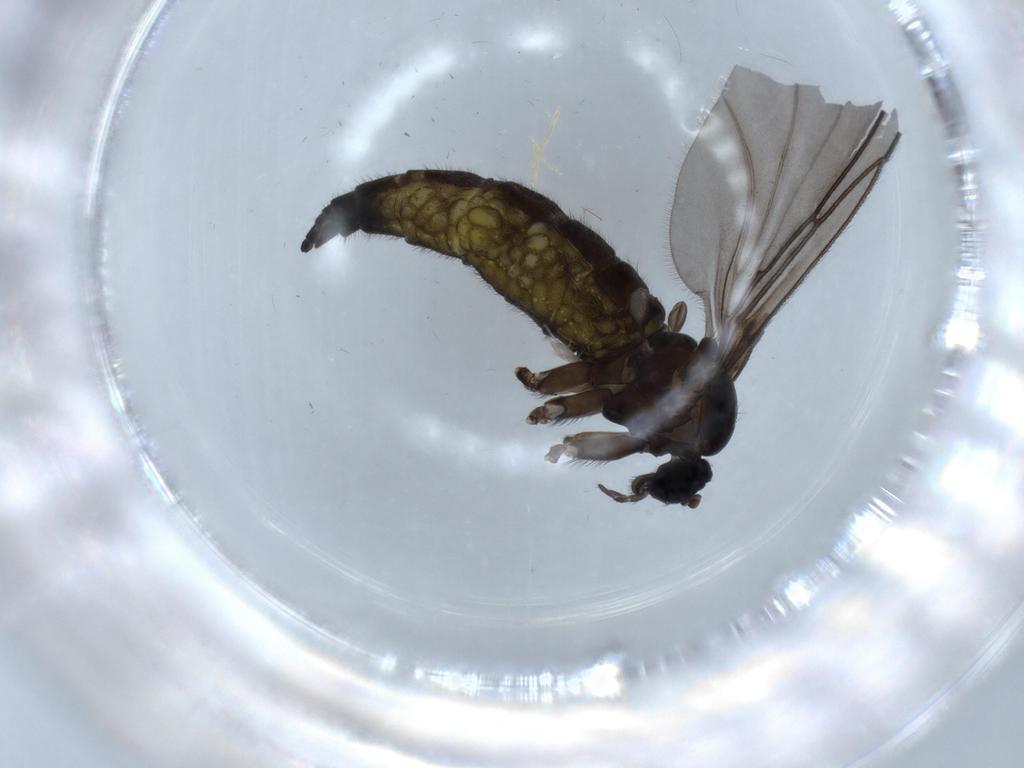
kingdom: Animalia
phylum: Arthropoda
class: Insecta
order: Diptera
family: Sciaridae
